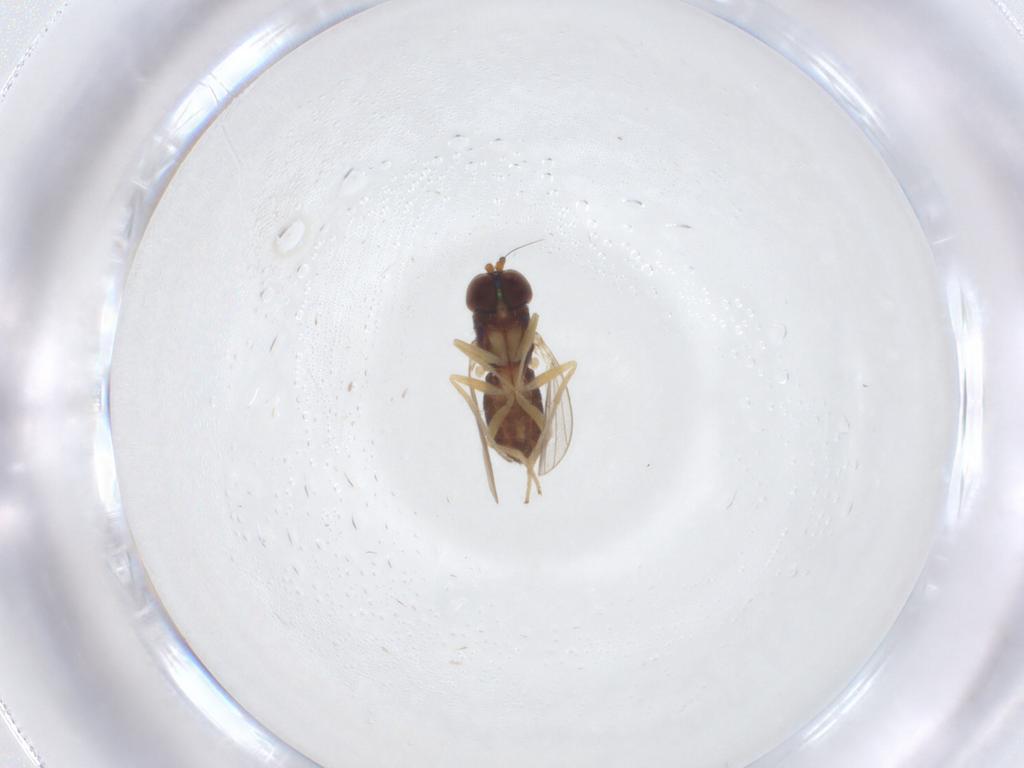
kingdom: Animalia
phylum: Arthropoda
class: Insecta
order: Diptera
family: Dolichopodidae
